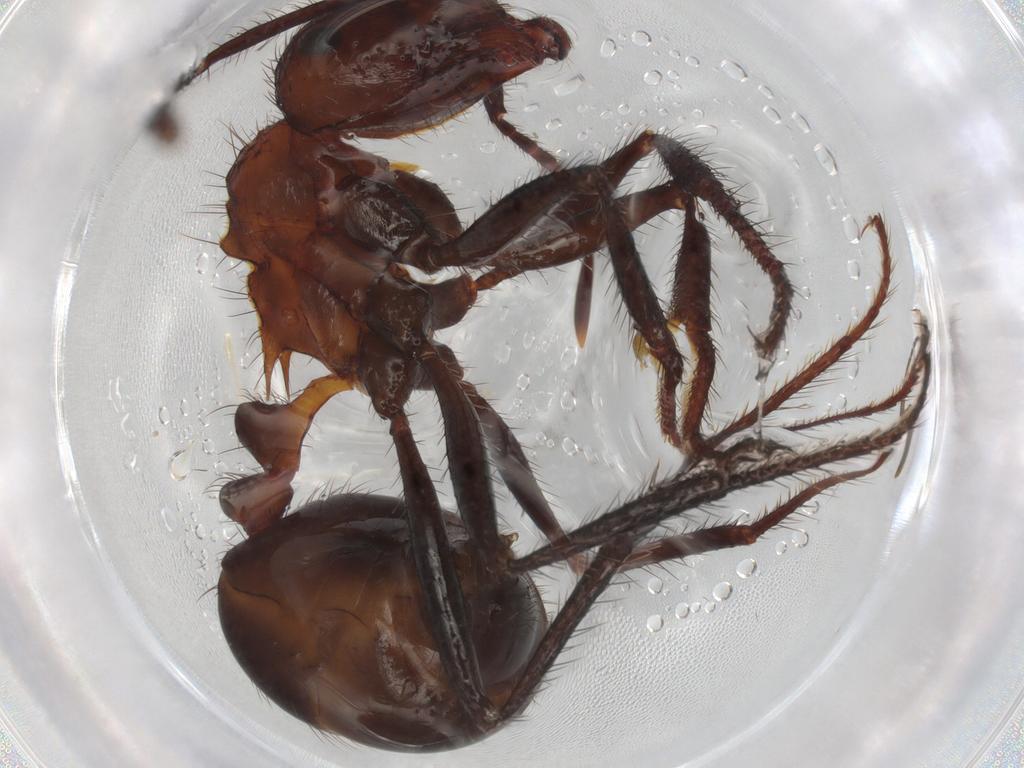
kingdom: Animalia
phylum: Arthropoda
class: Insecta
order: Hymenoptera
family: Formicidae
